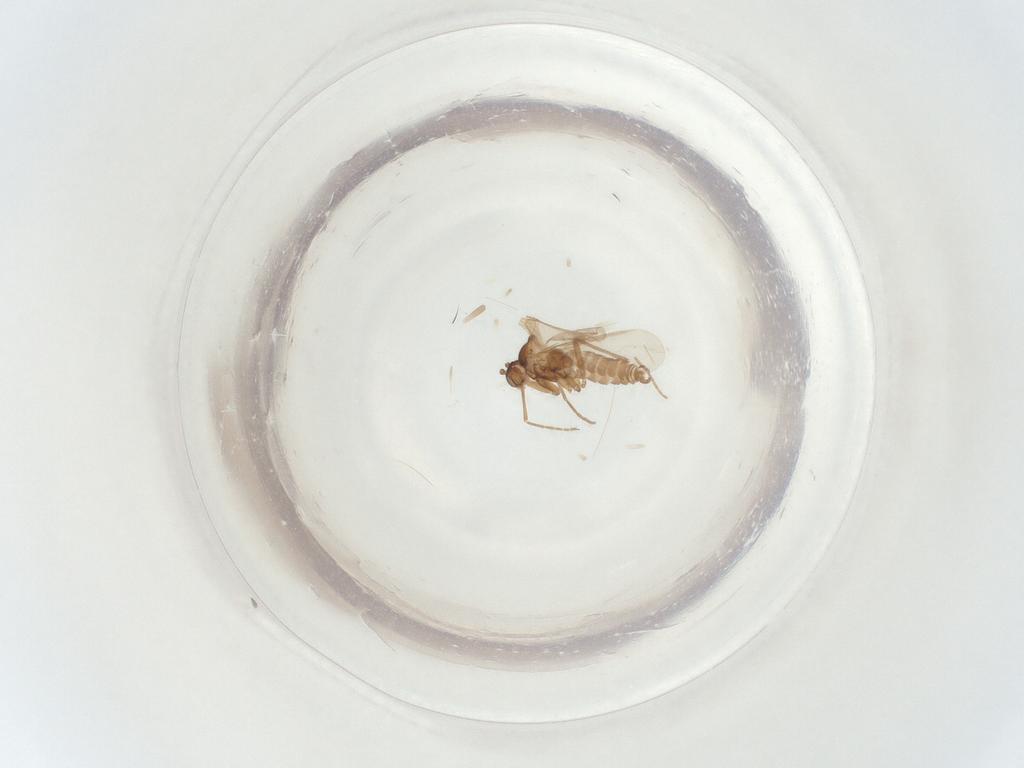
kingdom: Animalia
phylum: Arthropoda
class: Insecta
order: Diptera
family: Sciaridae
